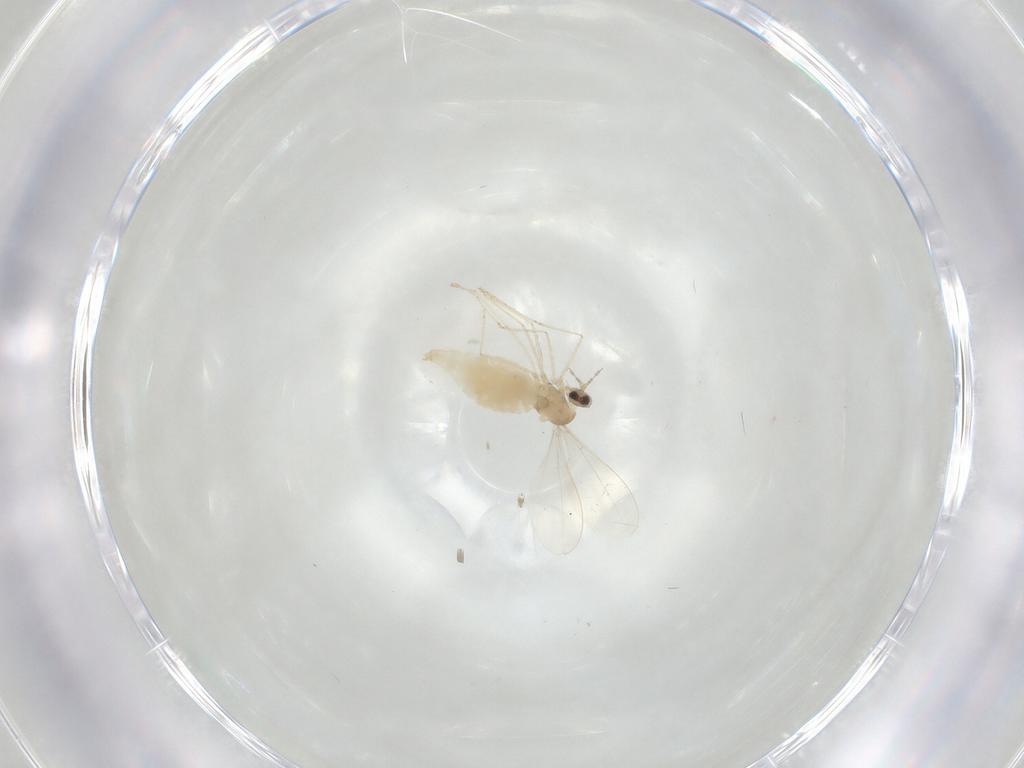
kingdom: Animalia
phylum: Arthropoda
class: Insecta
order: Diptera
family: Cecidomyiidae
